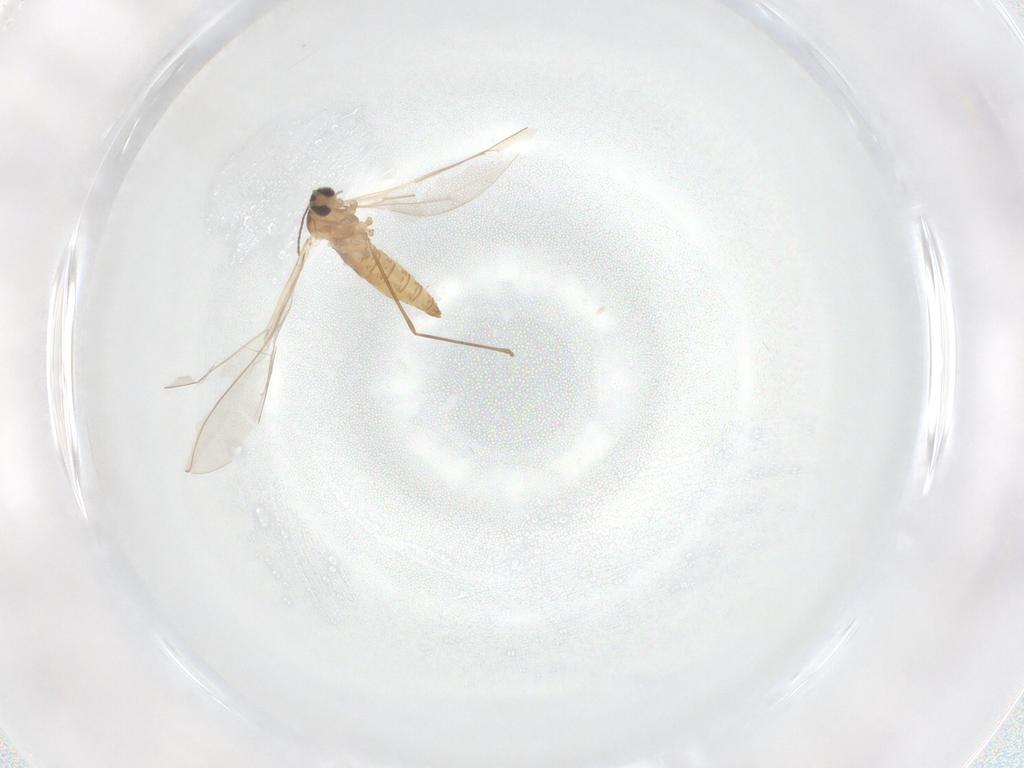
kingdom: Animalia
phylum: Arthropoda
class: Insecta
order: Diptera
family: Cecidomyiidae
